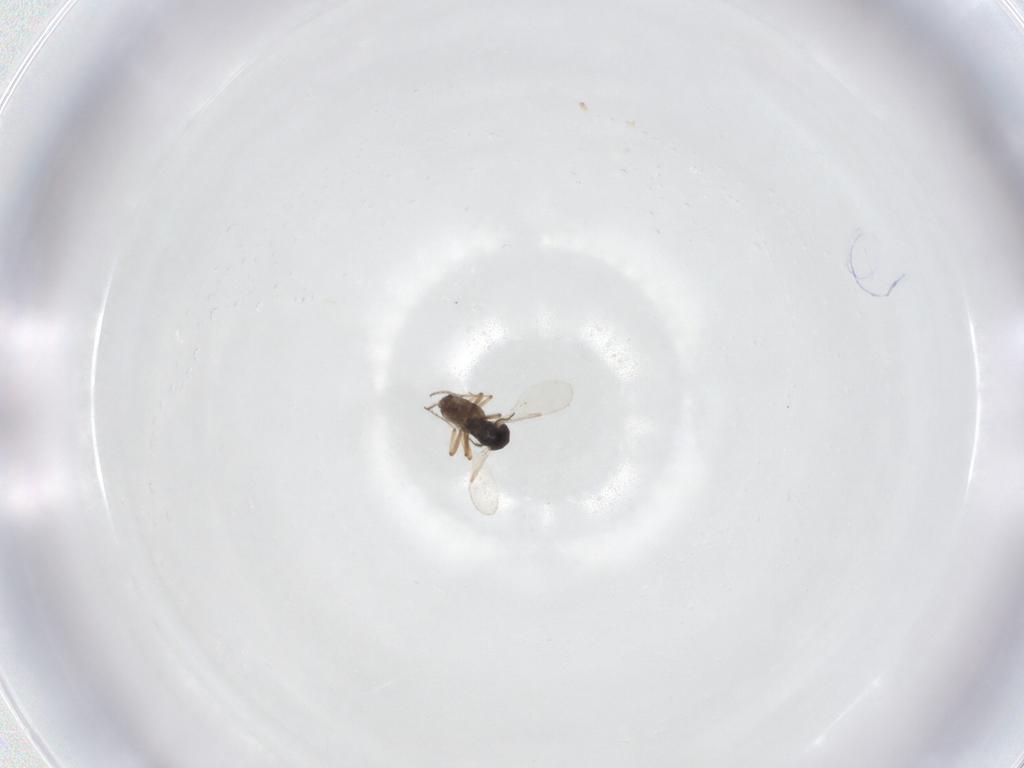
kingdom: Animalia
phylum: Arthropoda
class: Insecta
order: Diptera
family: Ceratopogonidae
